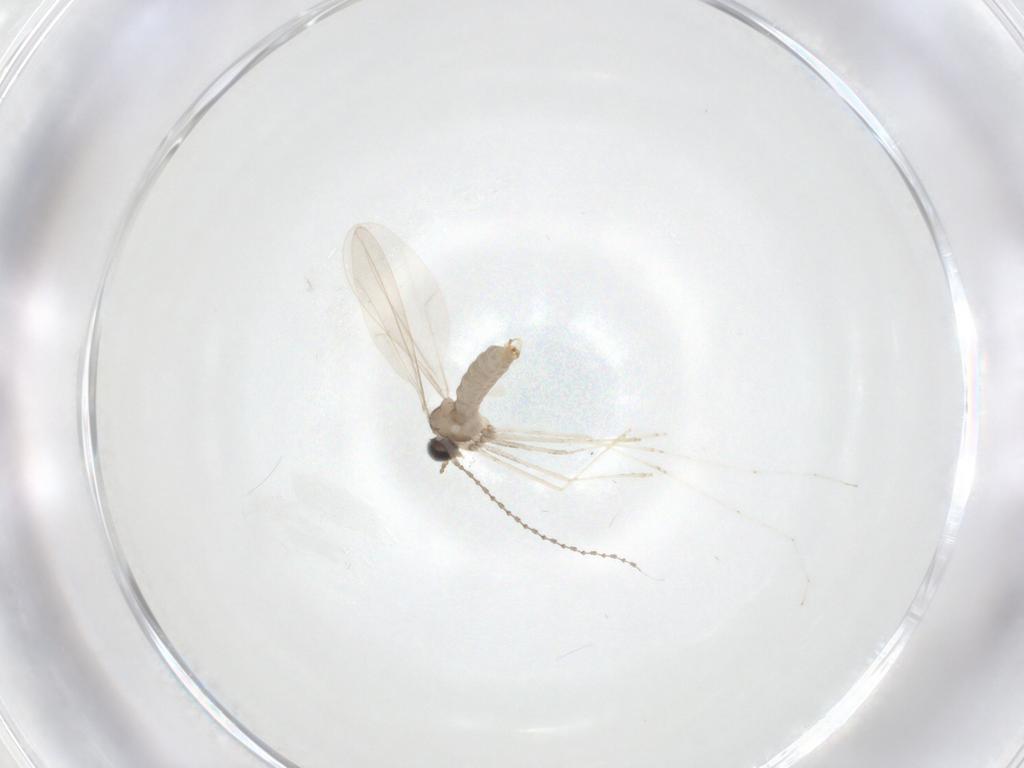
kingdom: Animalia
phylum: Arthropoda
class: Insecta
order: Diptera
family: Cecidomyiidae
